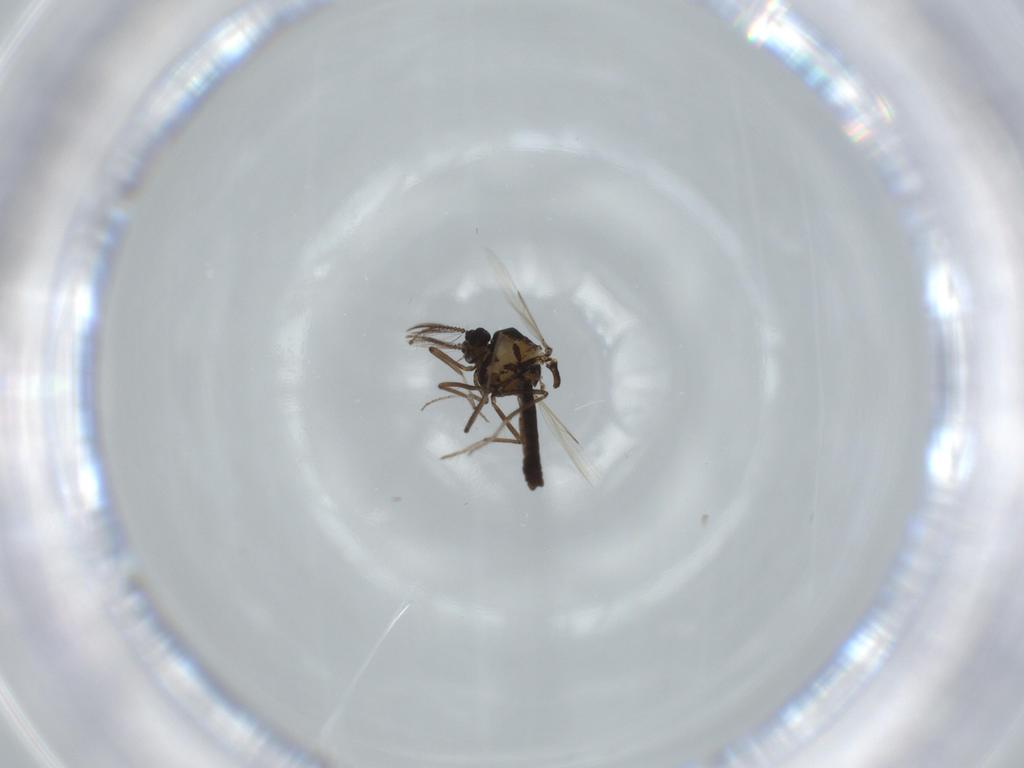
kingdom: Animalia
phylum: Arthropoda
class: Insecta
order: Diptera
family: Ceratopogonidae
